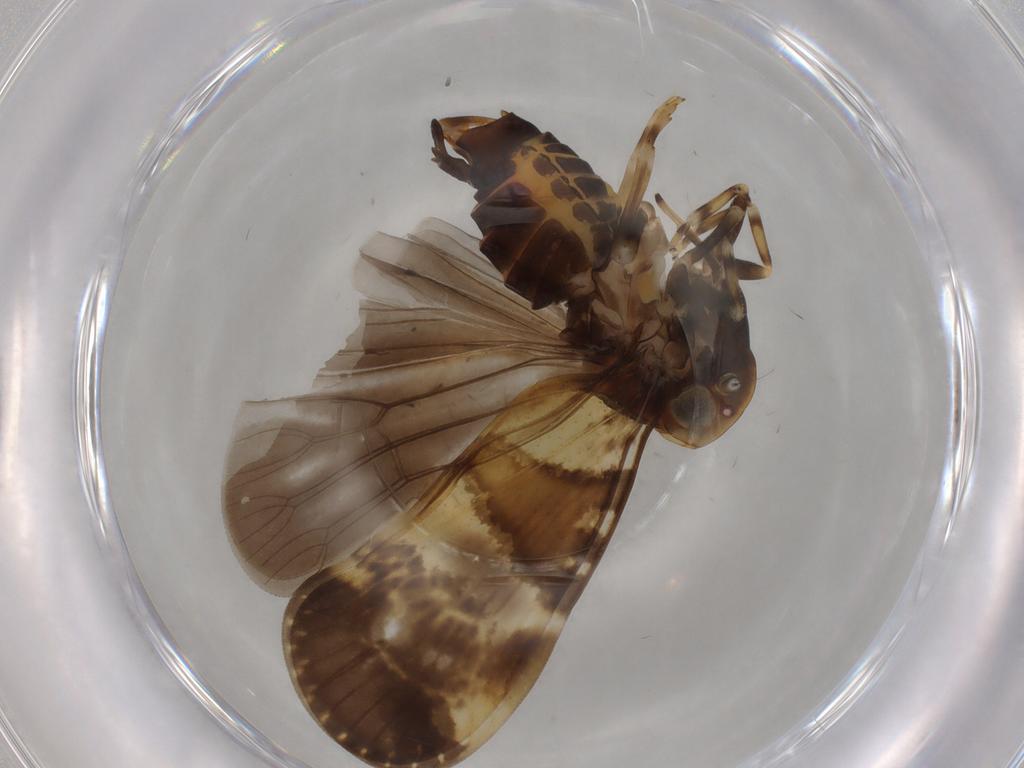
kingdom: Animalia
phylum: Arthropoda
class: Insecta
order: Hemiptera
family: Cixiidae
